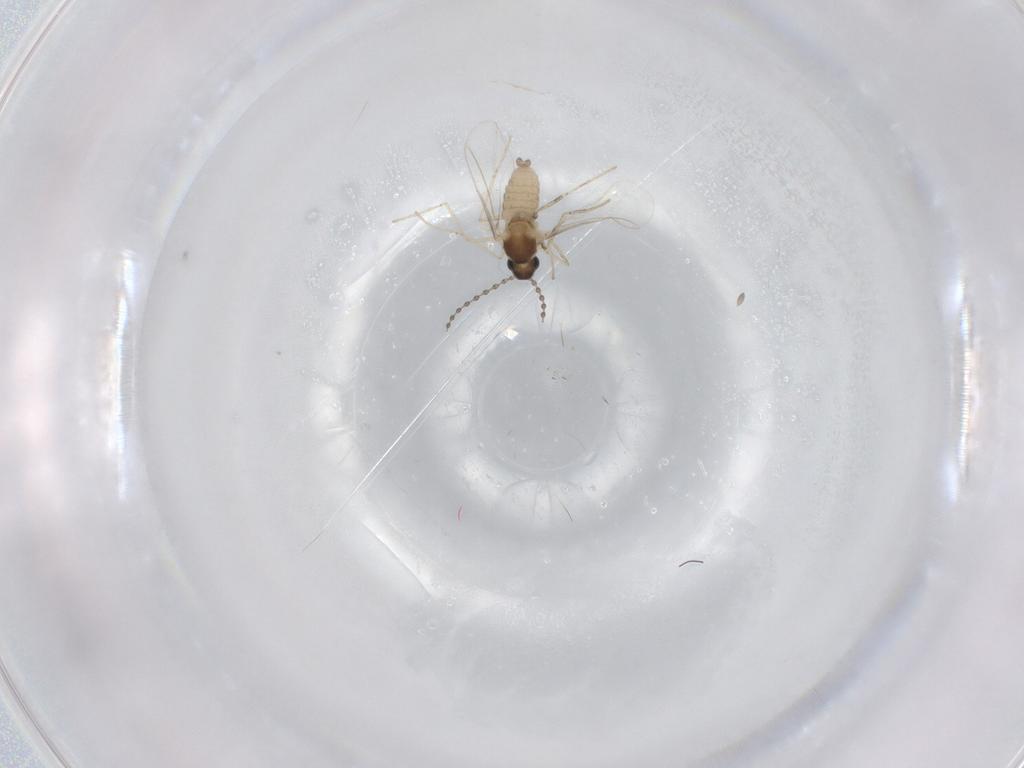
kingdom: Animalia
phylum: Arthropoda
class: Insecta
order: Diptera
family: Cecidomyiidae
